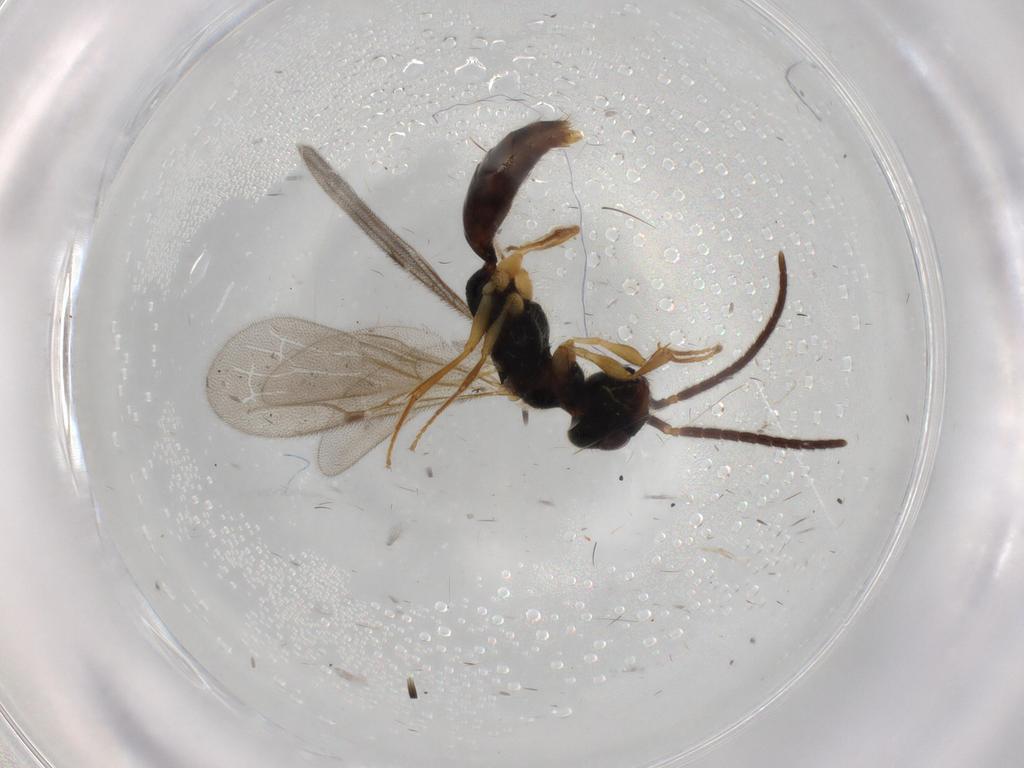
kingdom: Animalia
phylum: Arthropoda
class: Insecta
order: Hymenoptera
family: Bethylidae
